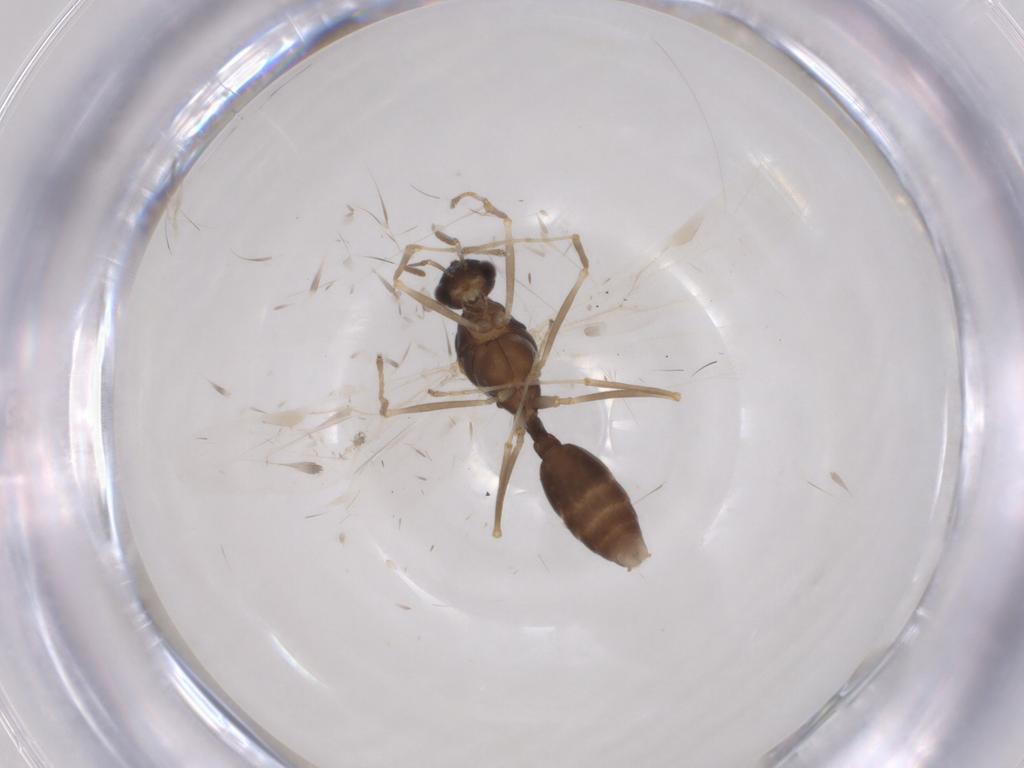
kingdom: Animalia
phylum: Arthropoda
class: Insecta
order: Hymenoptera
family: Formicidae
